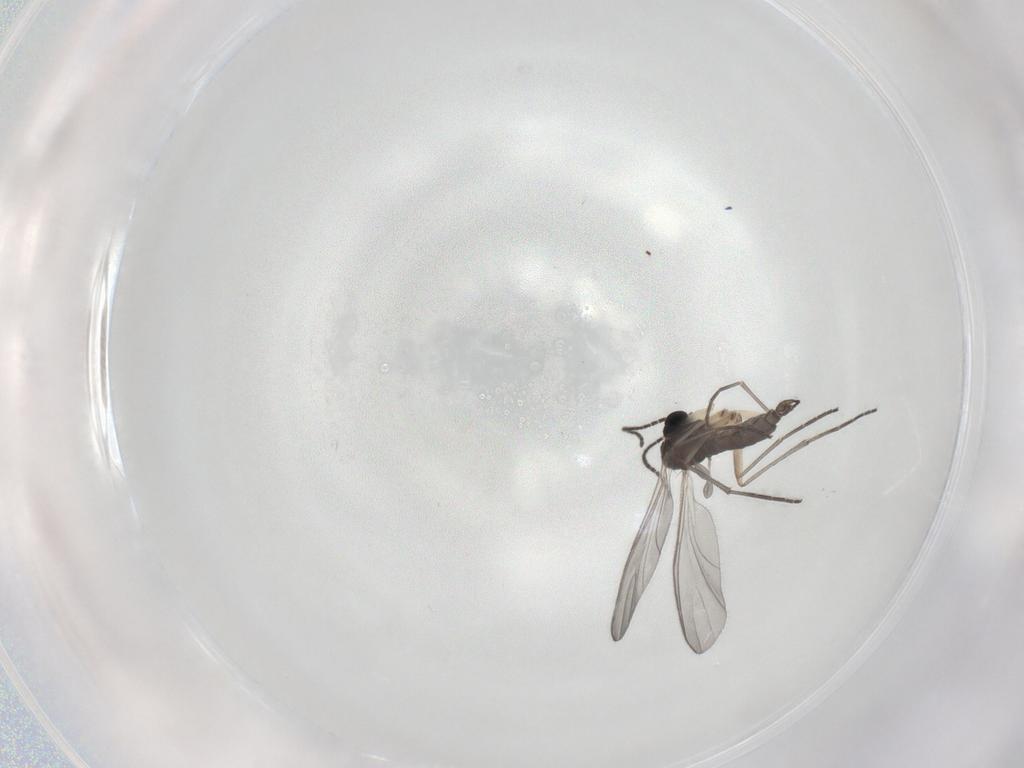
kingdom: Animalia
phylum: Arthropoda
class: Insecta
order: Diptera
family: Sciaridae
